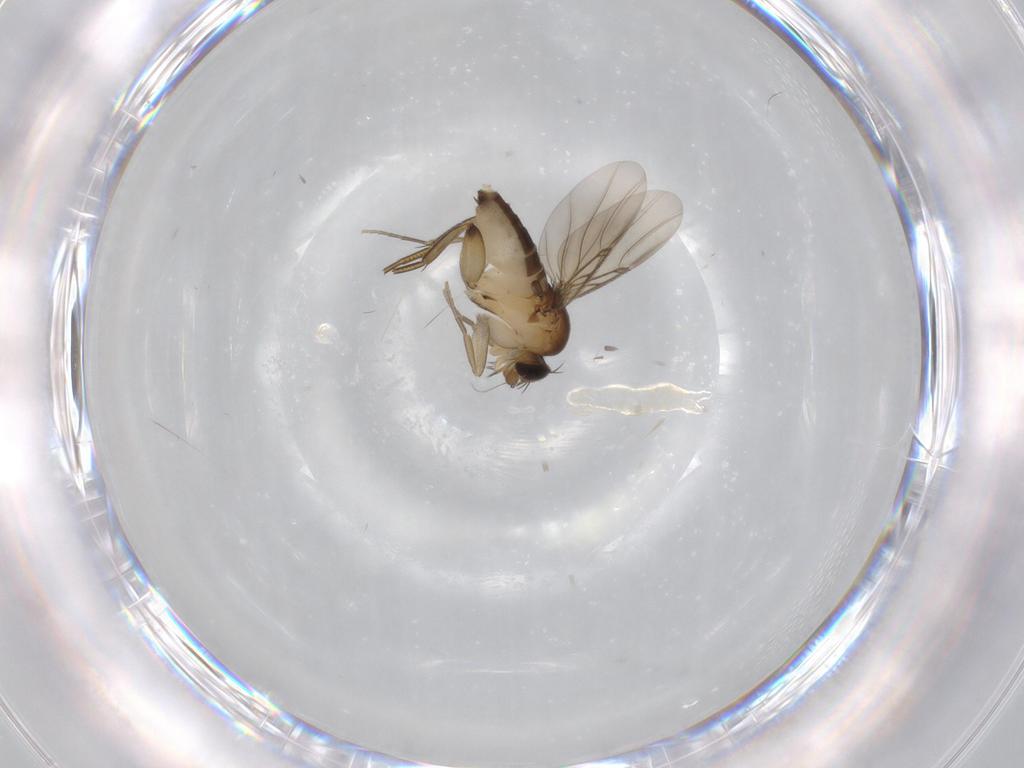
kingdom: Animalia
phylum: Arthropoda
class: Insecta
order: Diptera
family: Phoridae
